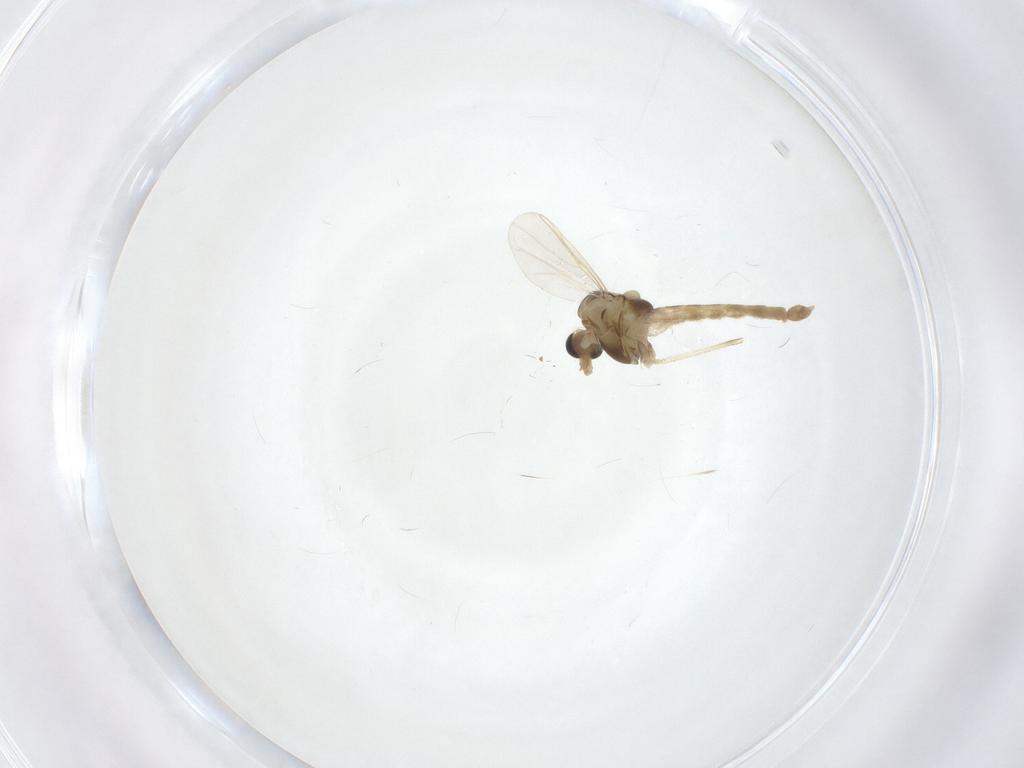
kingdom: Animalia
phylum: Arthropoda
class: Insecta
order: Diptera
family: Chironomidae
